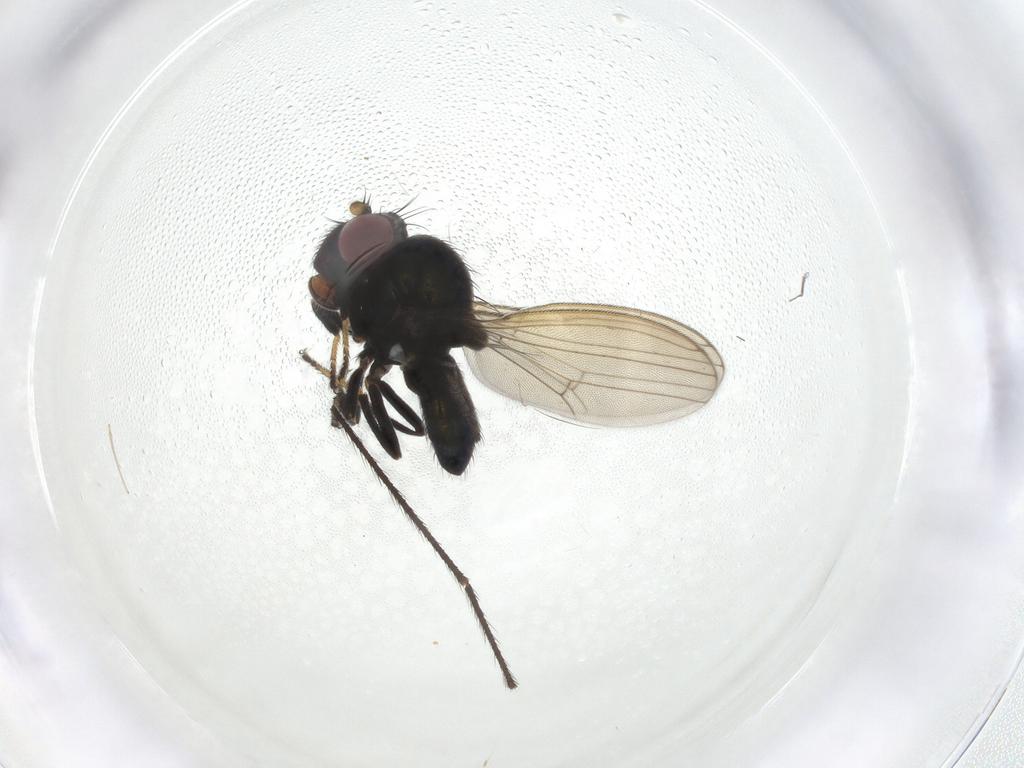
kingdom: Animalia
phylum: Arthropoda
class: Insecta
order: Diptera
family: Ephydridae
